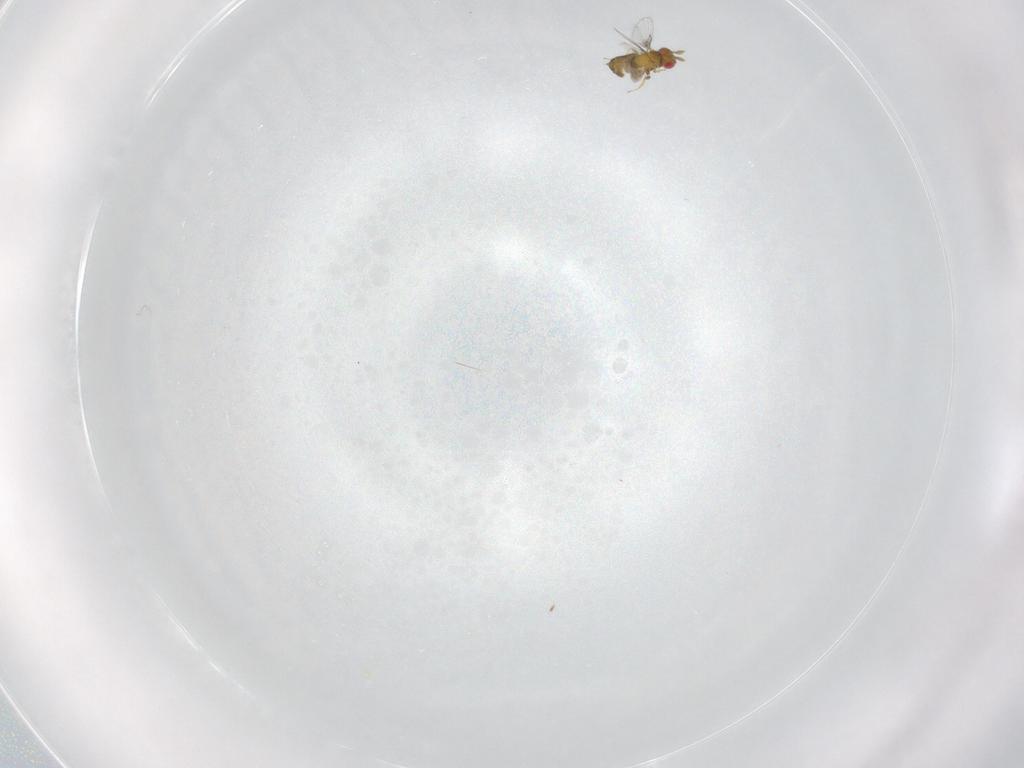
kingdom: Animalia
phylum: Arthropoda
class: Insecta
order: Hymenoptera
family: Trichogrammatidae
